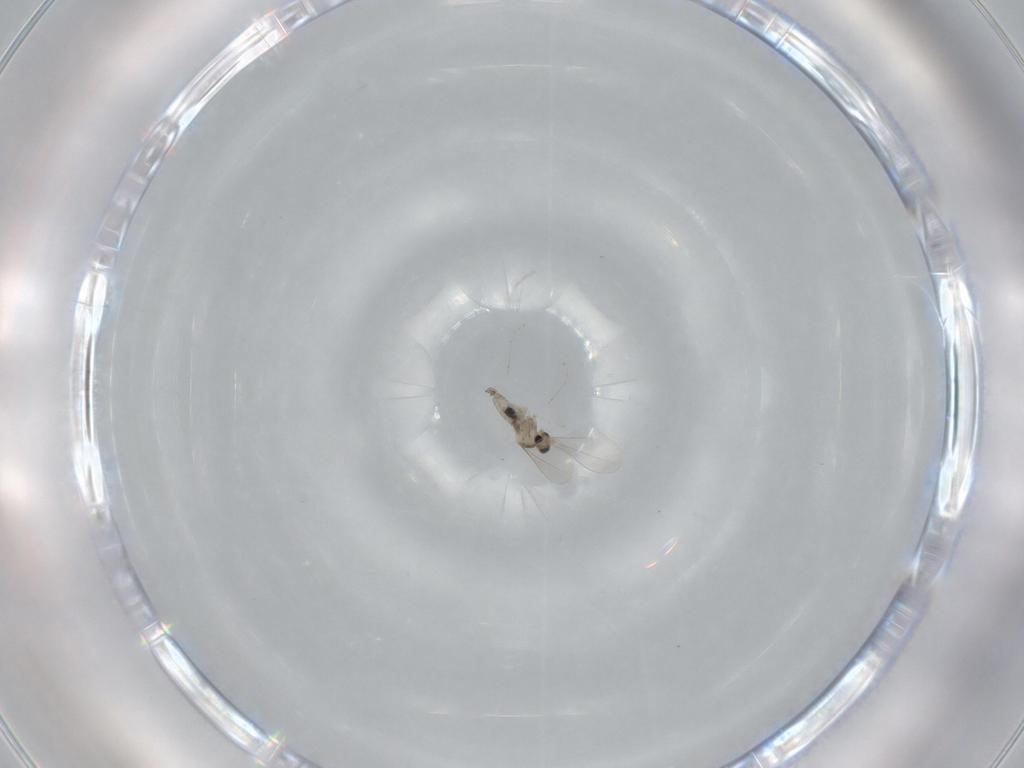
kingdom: Animalia
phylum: Arthropoda
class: Insecta
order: Diptera
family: Cecidomyiidae
